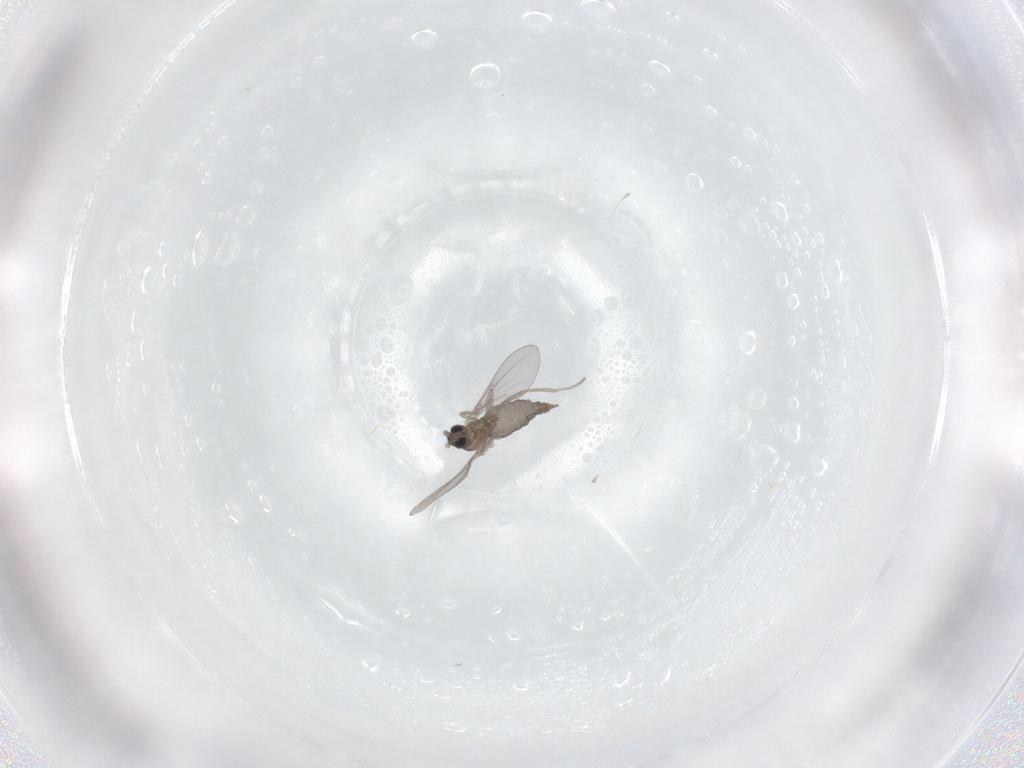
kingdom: Animalia
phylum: Arthropoda
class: Insecta
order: Diptera
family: Cecidomyiidae
